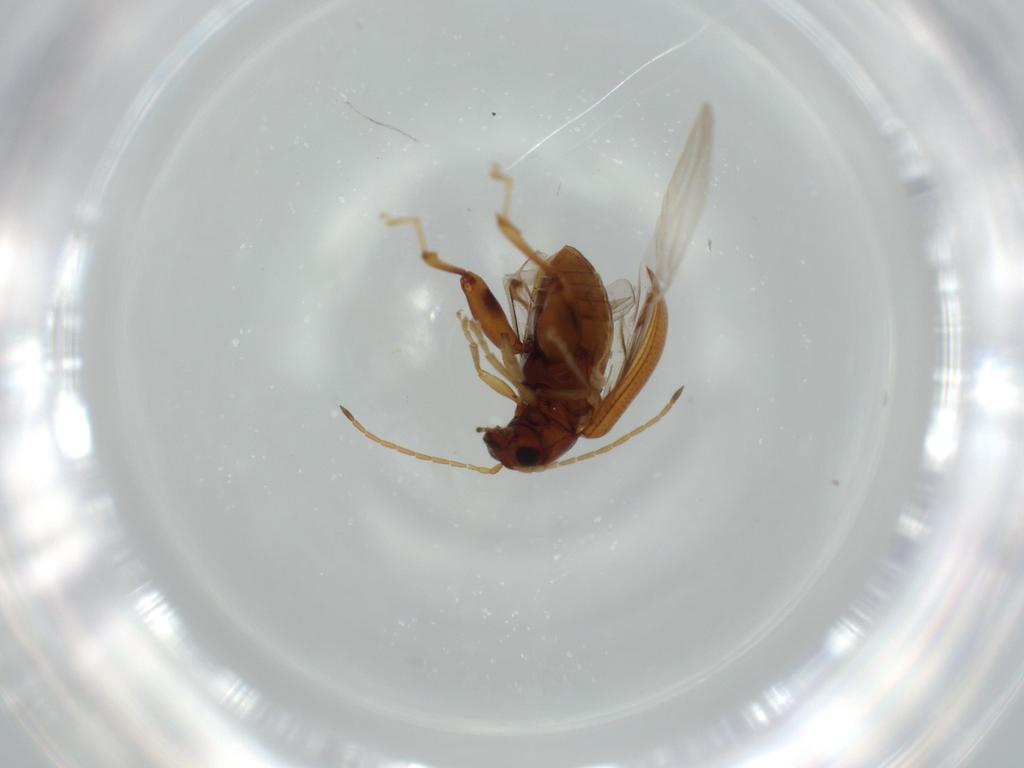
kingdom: Animalia
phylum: Arthropoda
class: Insecta
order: Coleoptera
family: Chrysomelidae
